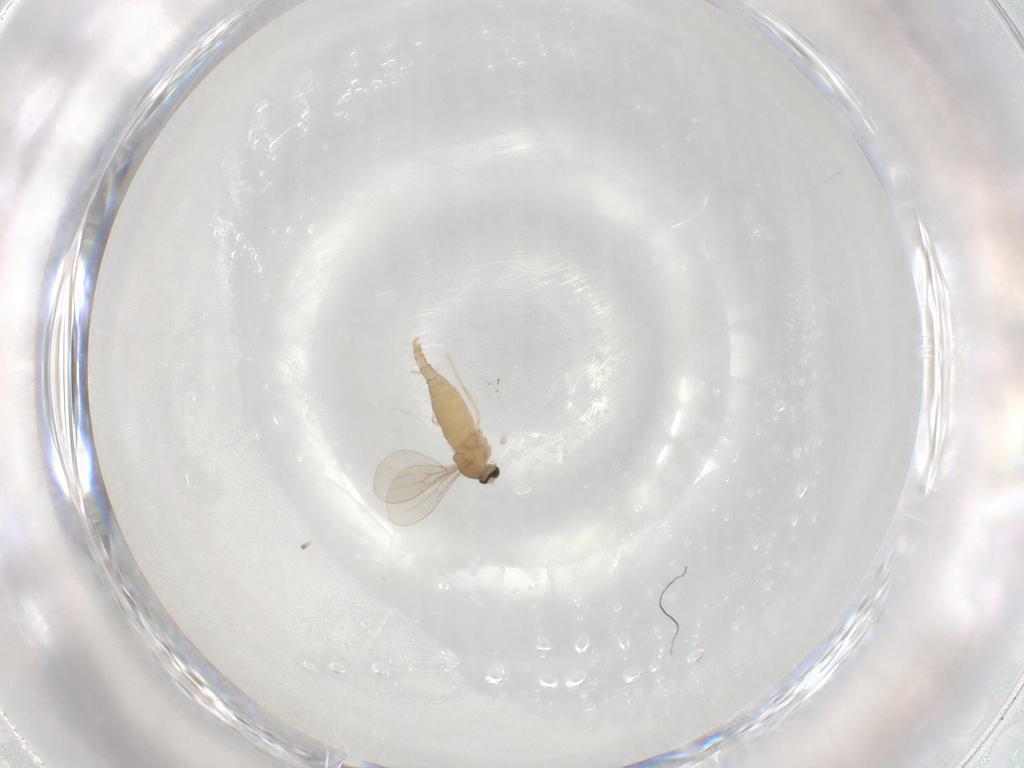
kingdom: Animalia
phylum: Arthropoda
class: Insecta
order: Diptera
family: Cecidomyiidae
